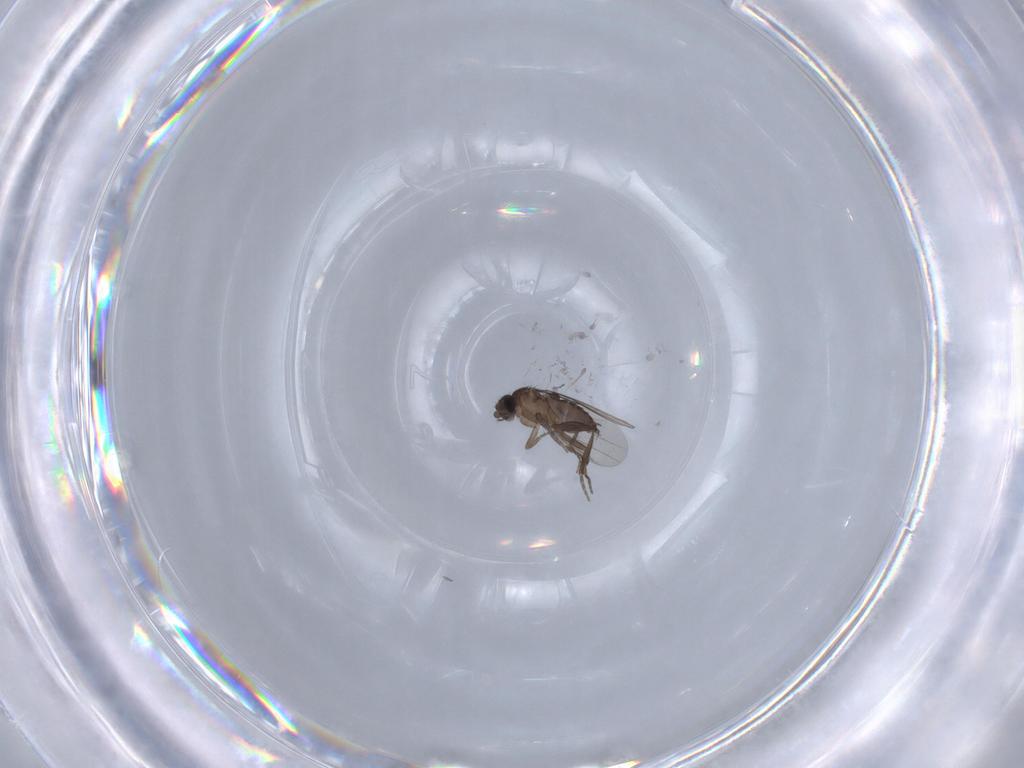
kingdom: Animalia
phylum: Arthropoda
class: Insecta
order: Diptera
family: Phoridae
